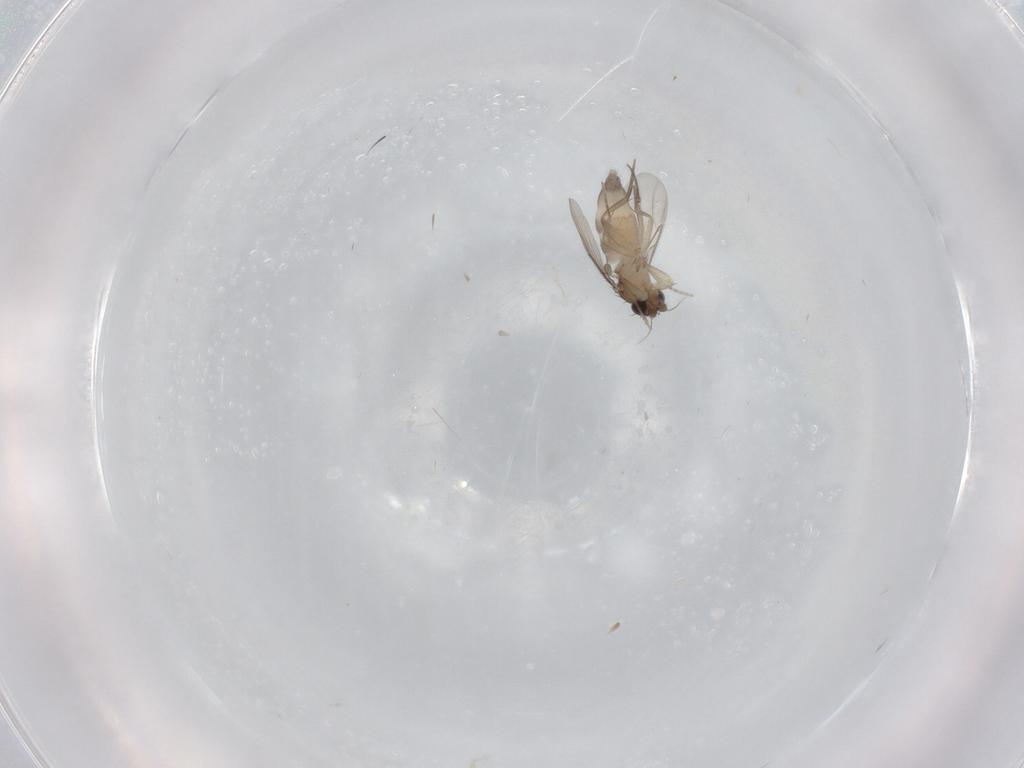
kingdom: Animalia
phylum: Arthropoda
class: Insecta
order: Diptera
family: Phoridae
